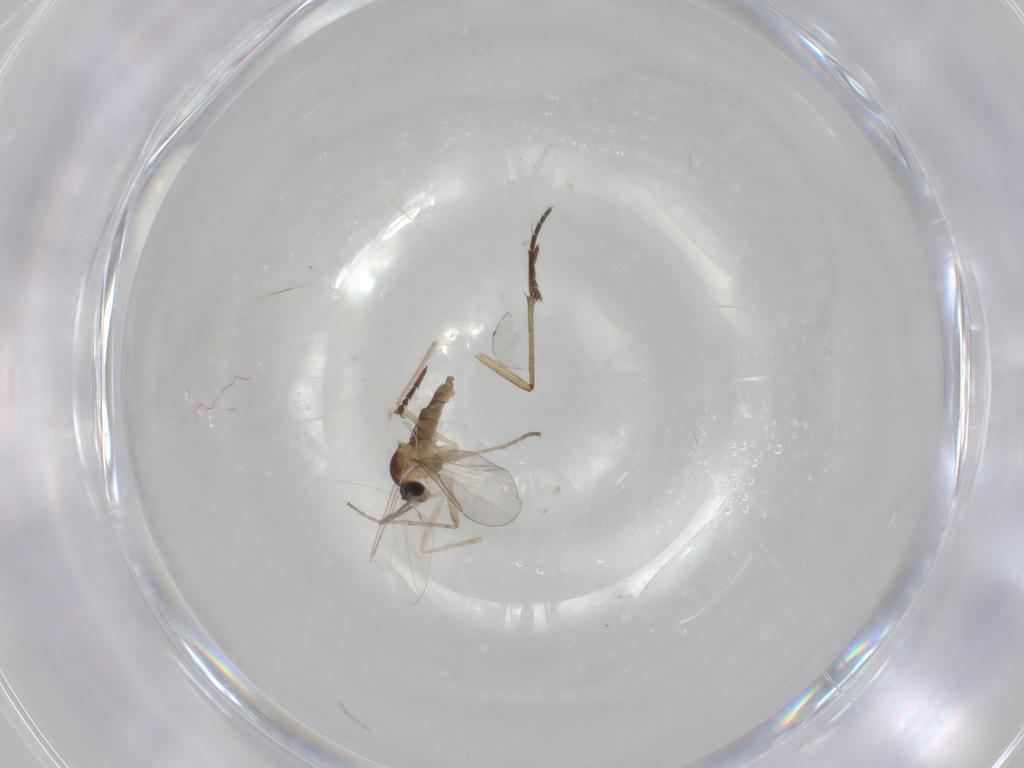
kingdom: Animalia
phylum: Arthropoda
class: Insecta
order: Diptera
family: Cecidomyiidae
